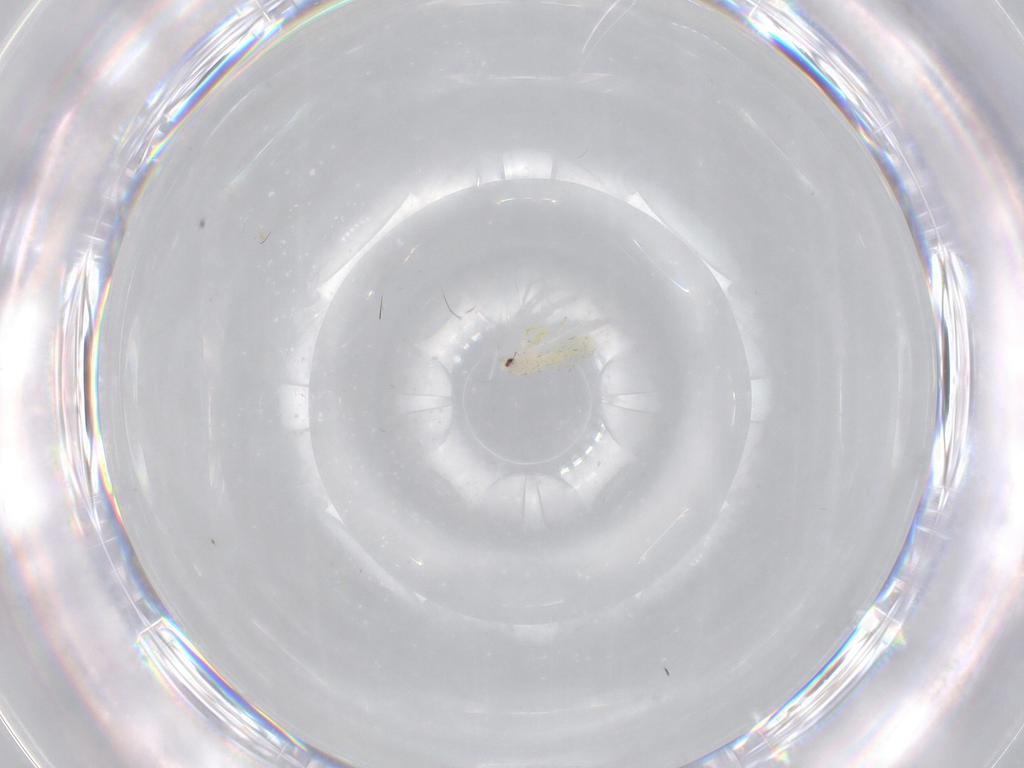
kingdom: Animalia
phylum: Arthropoda
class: Insecta
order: Hemiptera
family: Aleyrodidae
